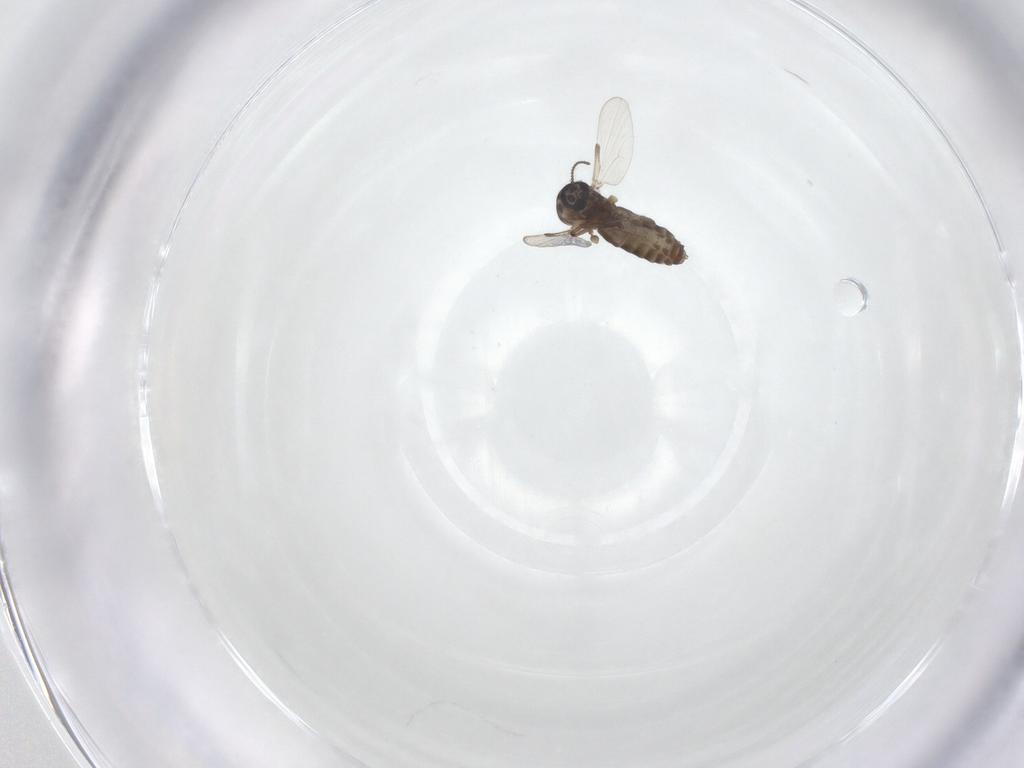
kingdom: Animalia
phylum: Arthropoda
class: Insecta
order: Diptera
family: Ceratopogonidae
